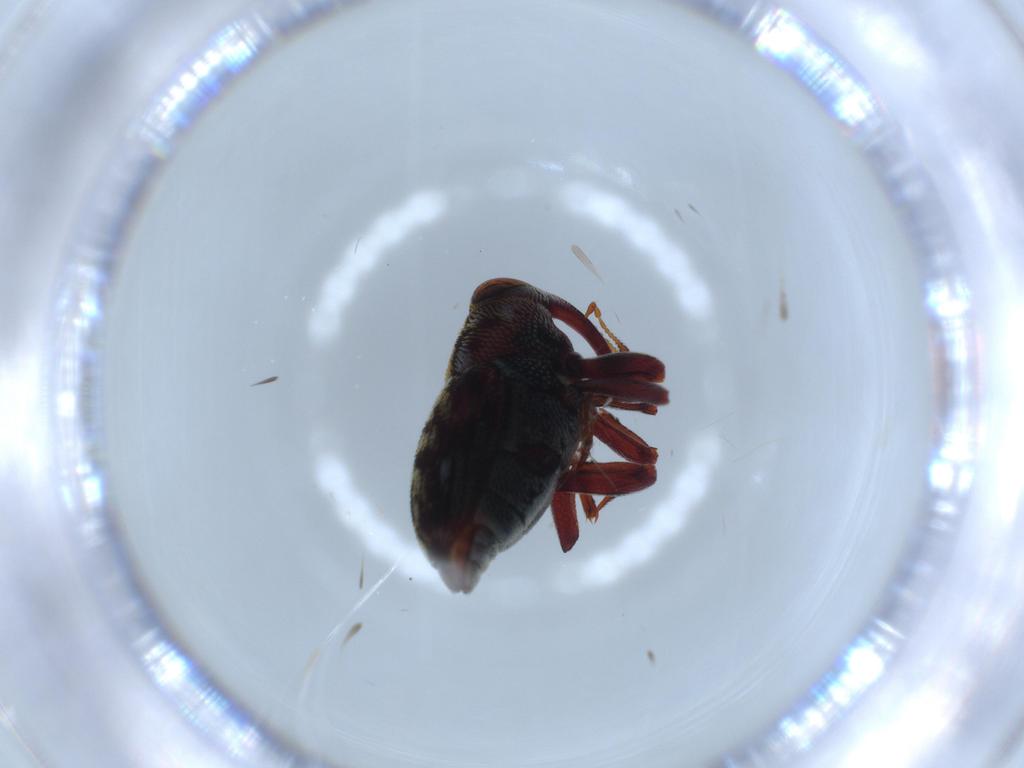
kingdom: Animalia
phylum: Arthropoda
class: Insecta
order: Coleoptera
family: Curculionidae
